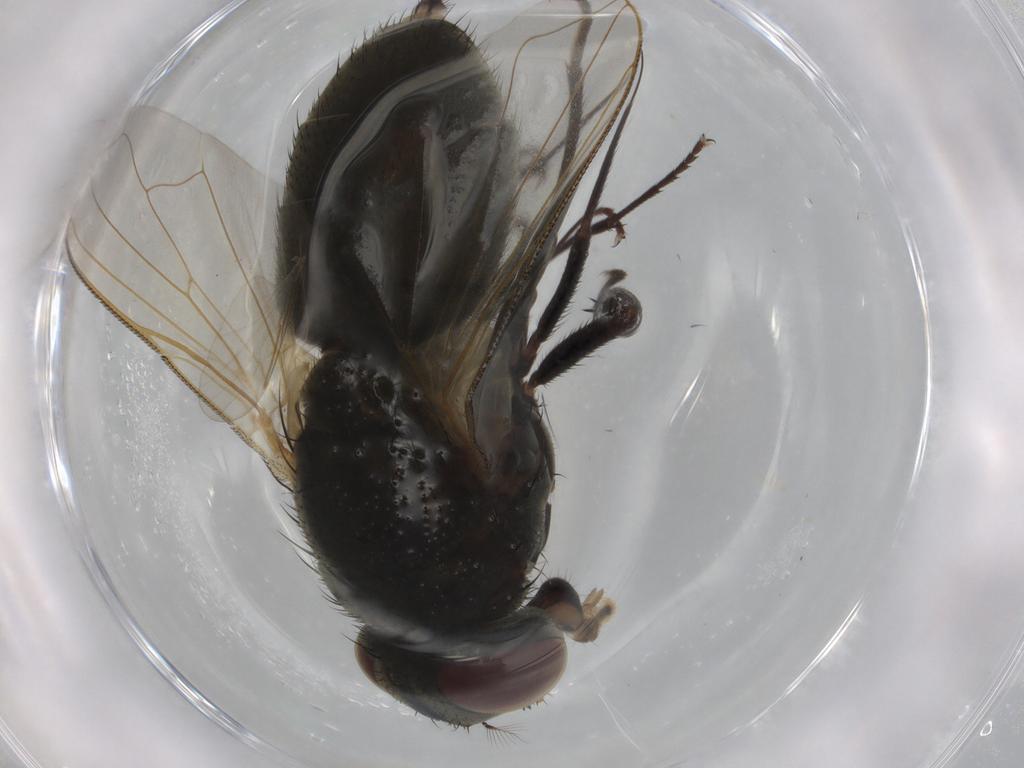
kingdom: Animalia
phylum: Arthropoda
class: Insecta
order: Diptera
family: Muscidae
